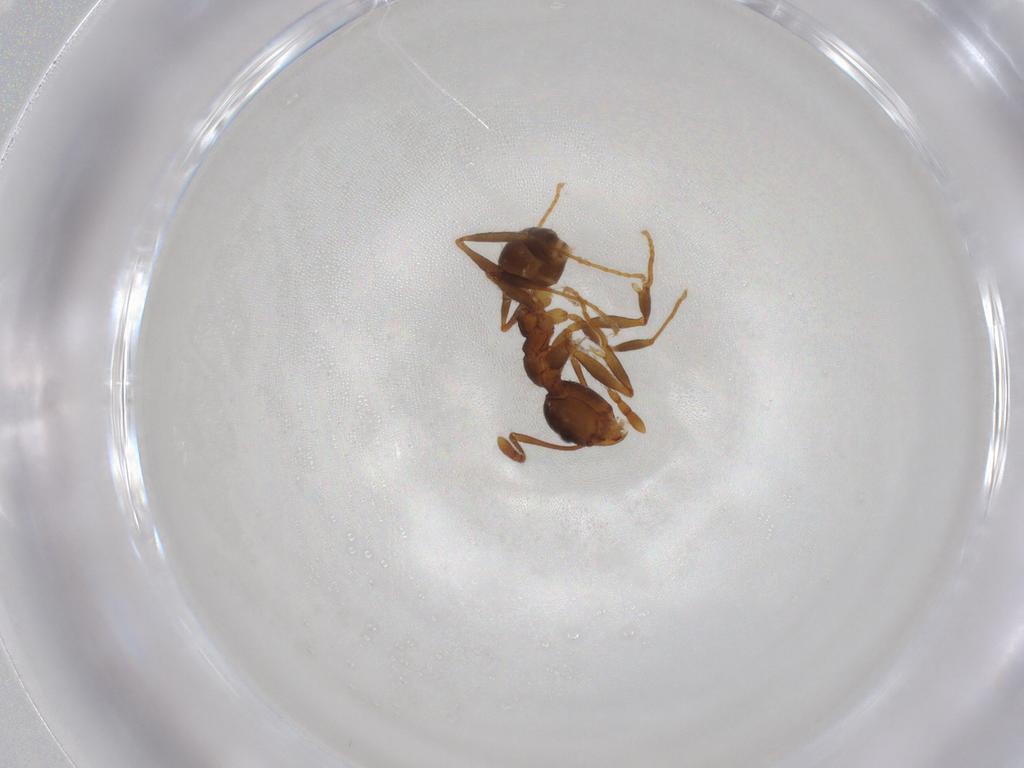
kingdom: Animalia
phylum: Arthropoda
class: Insecta
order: Hymenoptera
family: Formicidae
